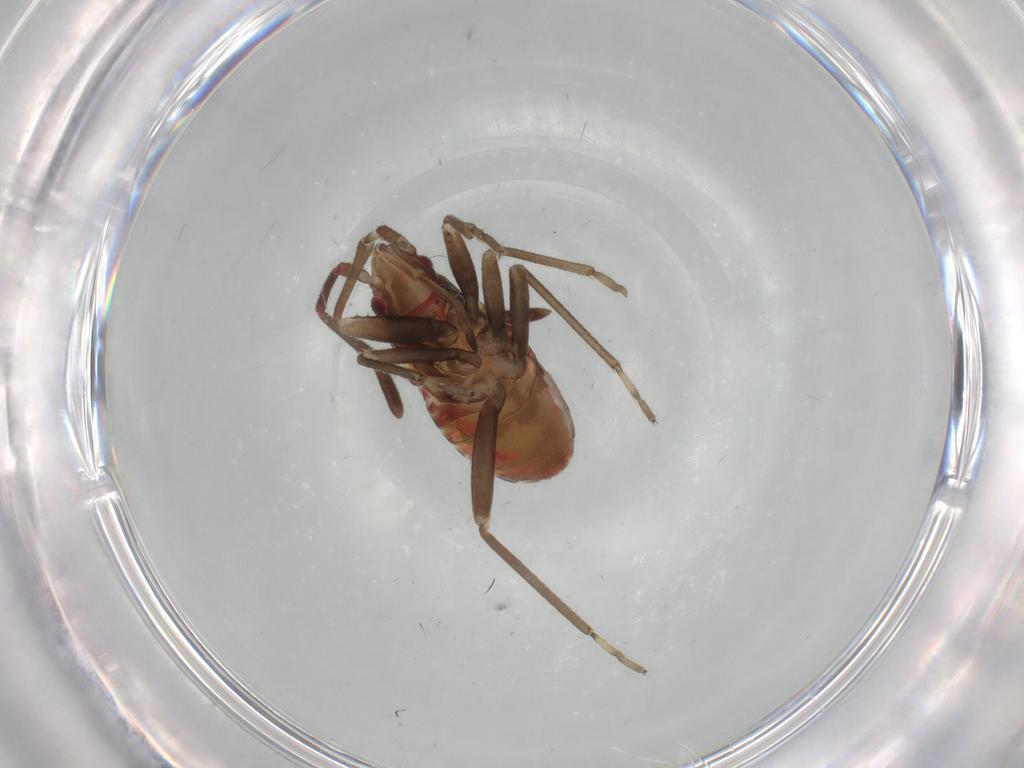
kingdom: Animalia
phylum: Arthropoda
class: Insecta
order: Hemiptera
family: Rhyparochromidae
